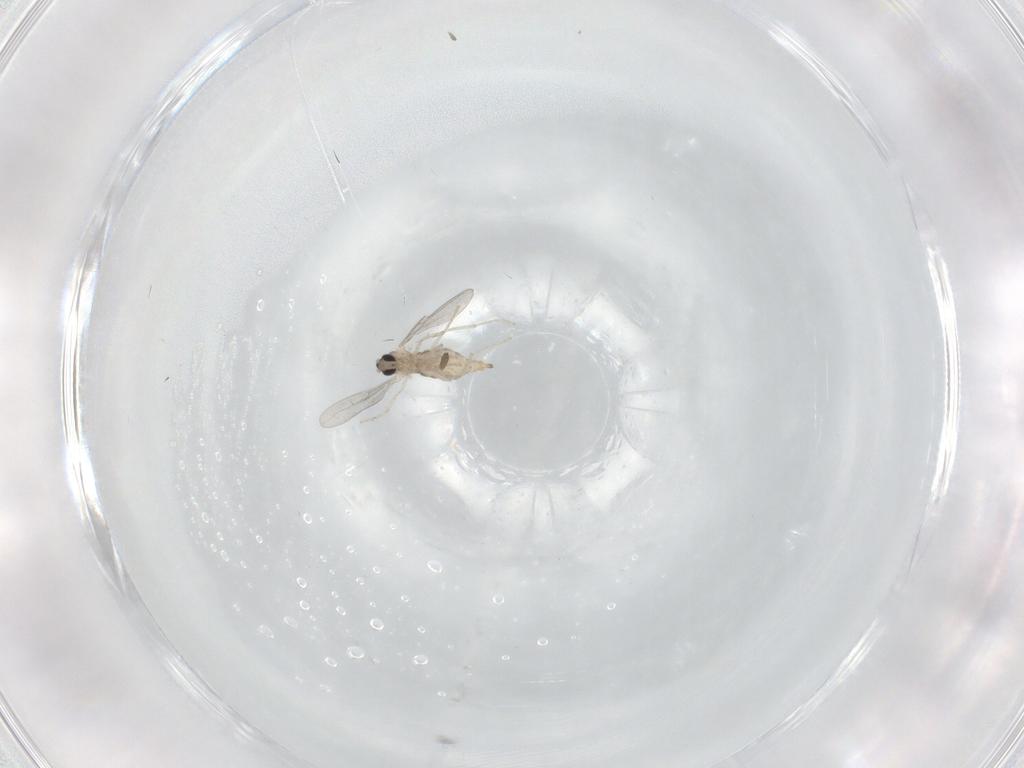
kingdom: Animalia
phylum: Arthropoda
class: Insecta
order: Diptera
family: Cecidomyiidae
